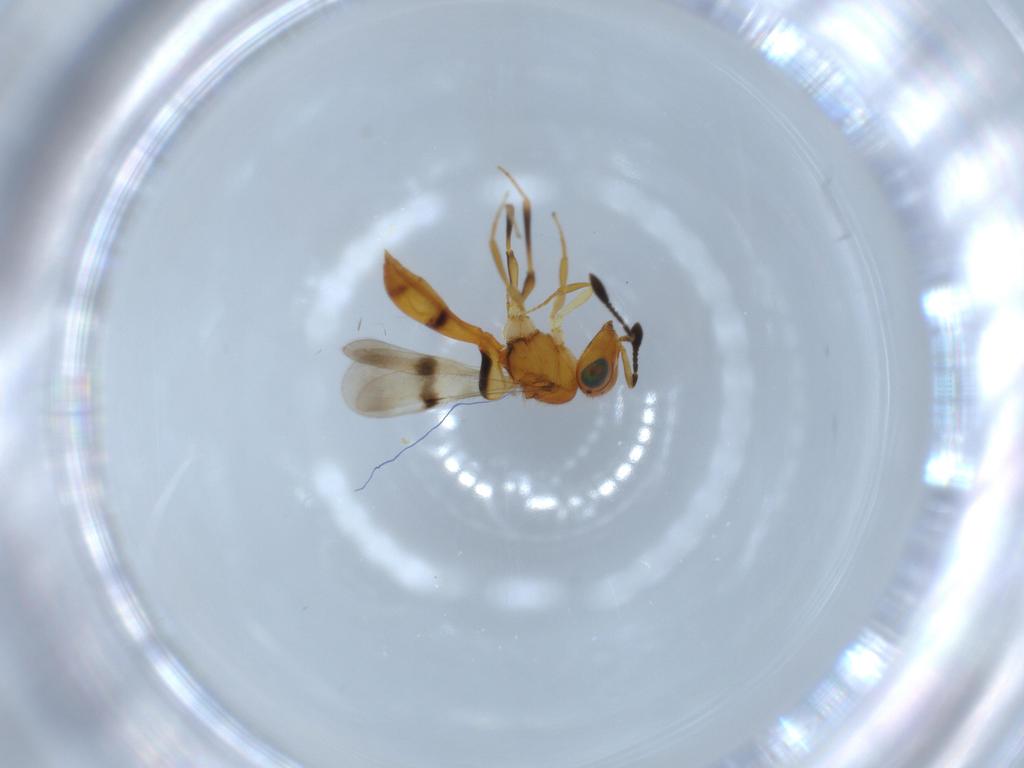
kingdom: Animalia
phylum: Arthropoda
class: Insecta
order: Hymenoptera
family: Scelionidae
